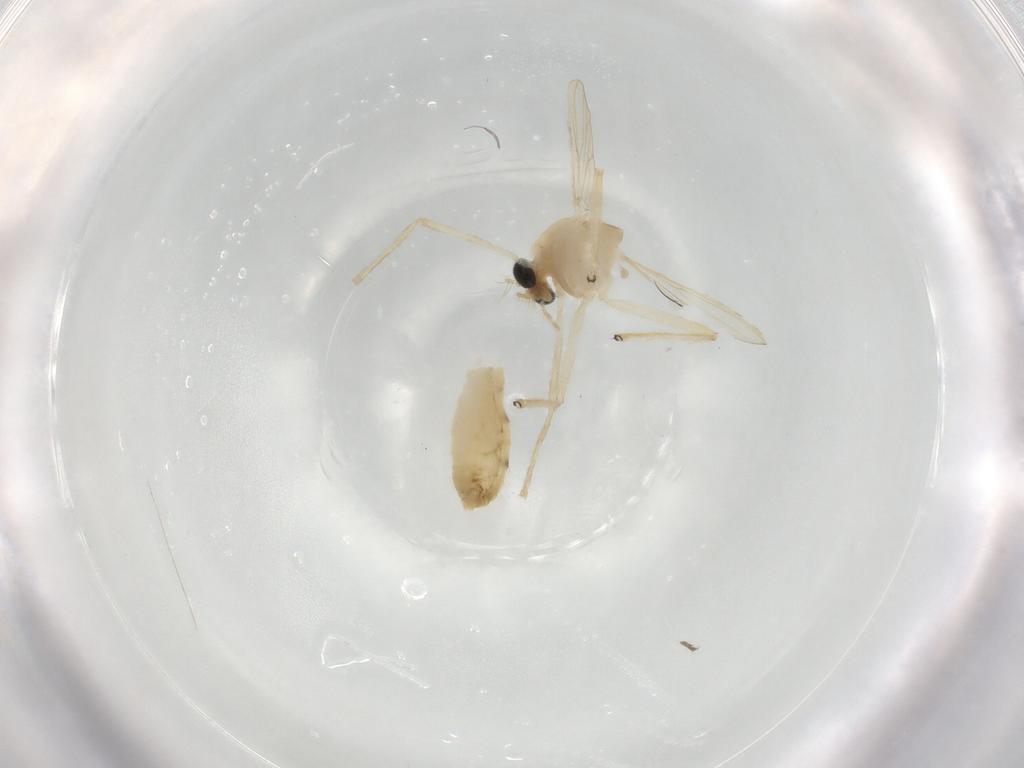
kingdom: Animalia
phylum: Arthropoda
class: Insecta
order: Diptera
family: Chironomidae
